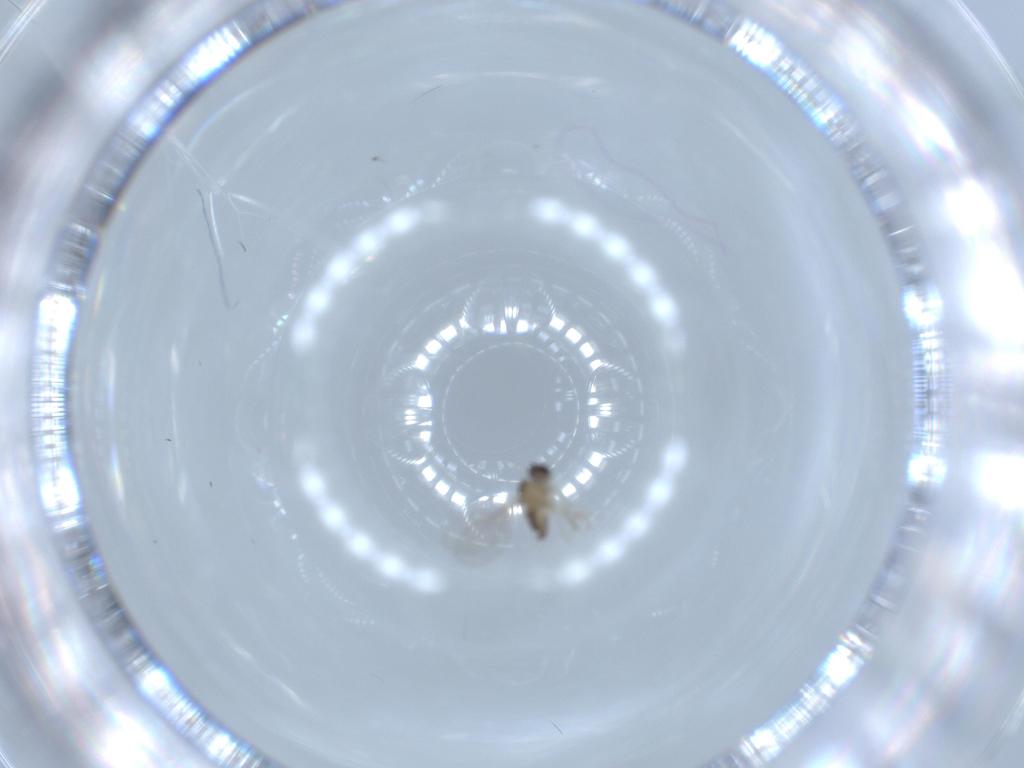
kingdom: Animalia
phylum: Arthropoda
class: Insecta
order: Diptera
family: Cecidomyiidae
